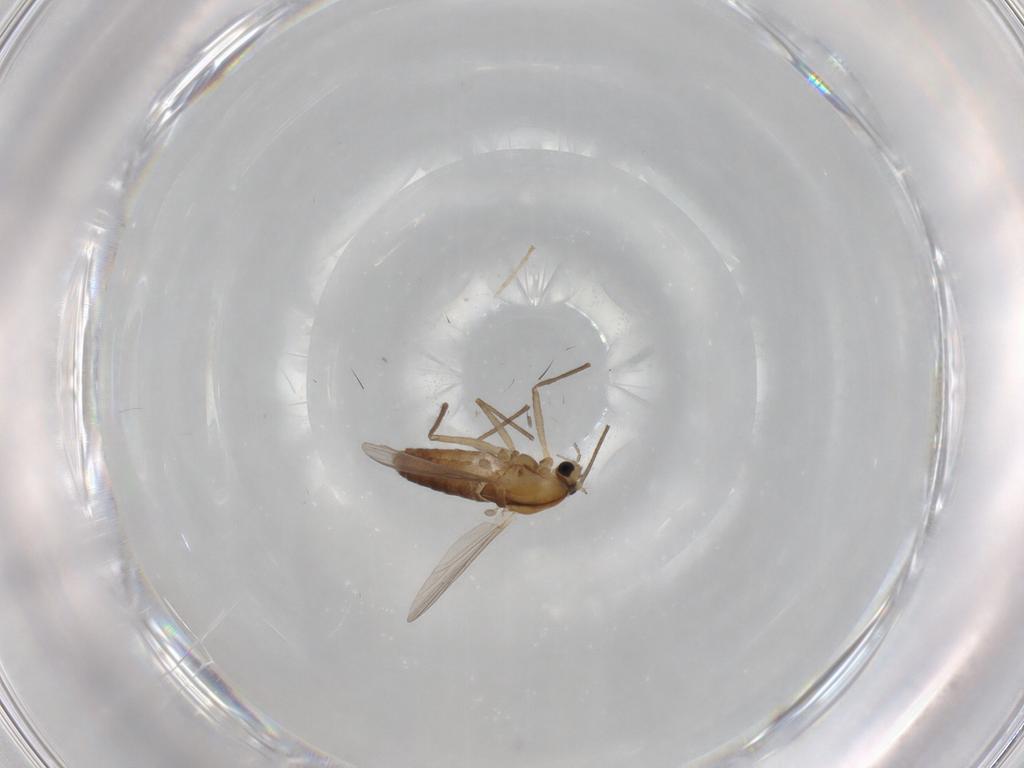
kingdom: Animalia
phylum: Arthropoda
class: Insecta
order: Diptera
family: Chironomidae
